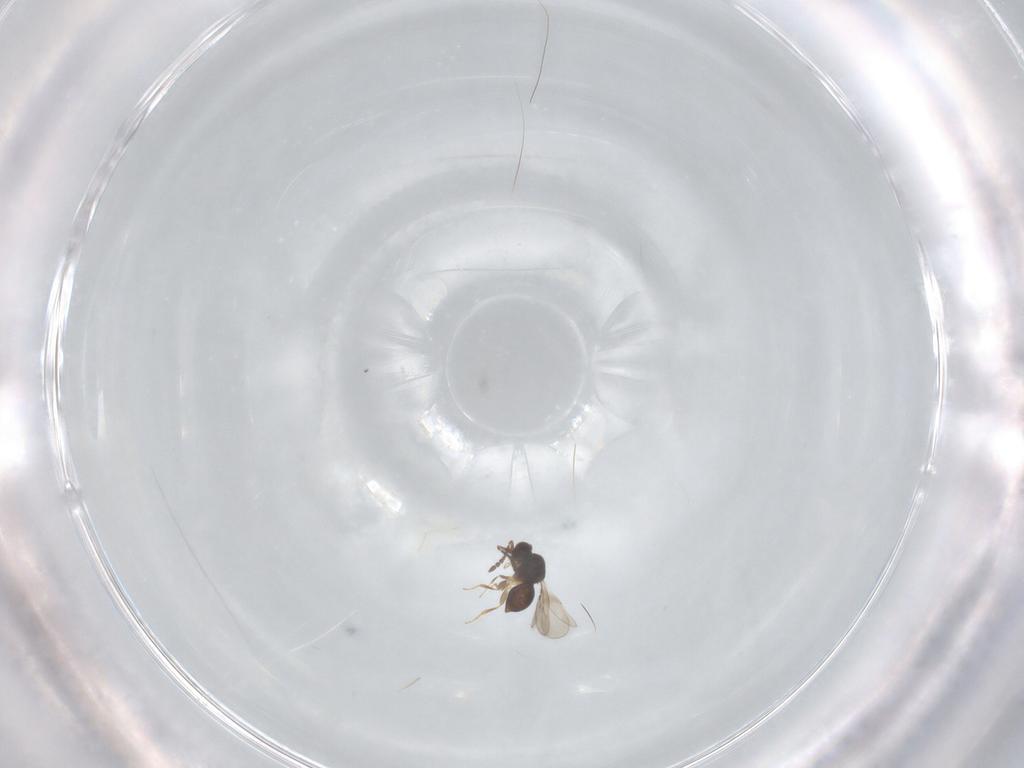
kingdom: Animalia
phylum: Arthropoda
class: Insecta
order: Hymenoptera
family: Ichneumonidae
